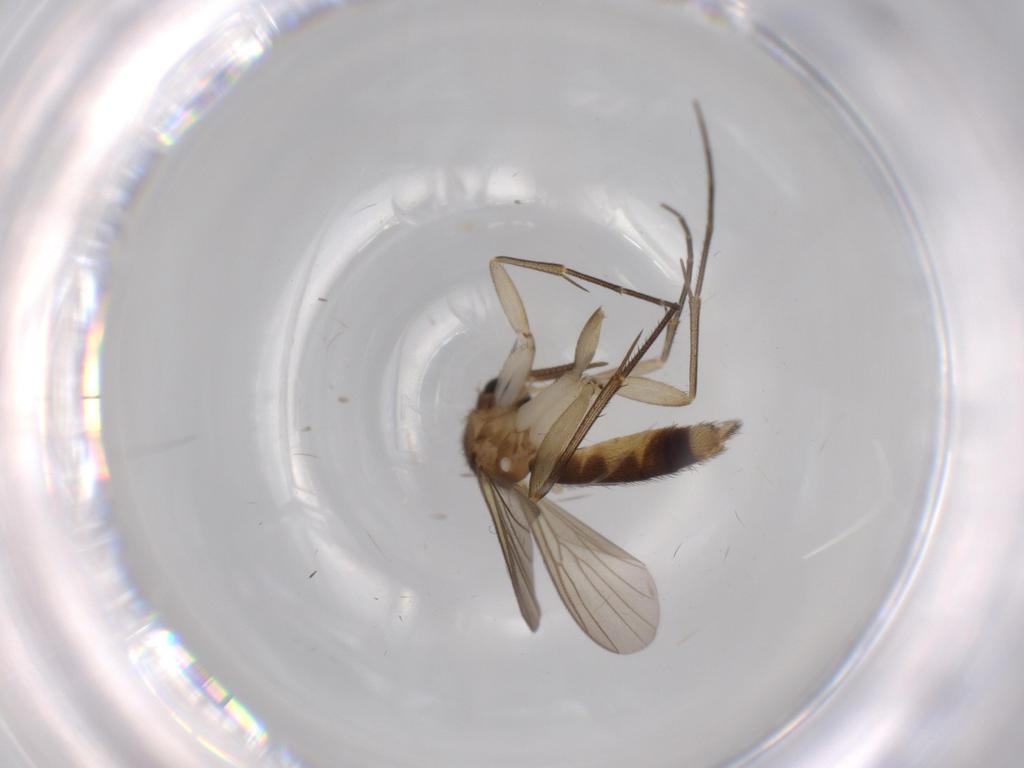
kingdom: Animalia
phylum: Arthropoda
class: Insecta
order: Diptera
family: Mycetophilidae
